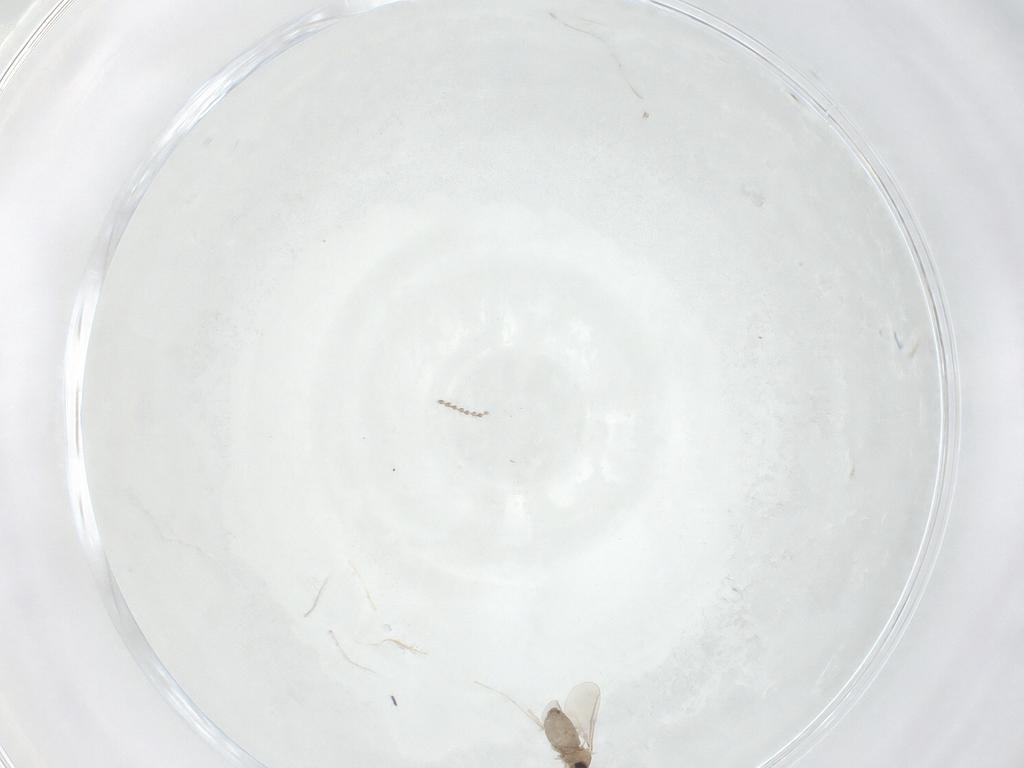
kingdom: Animalia
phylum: Arthropoda
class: Insecta
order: Diptera
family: Cecidomyiidae
